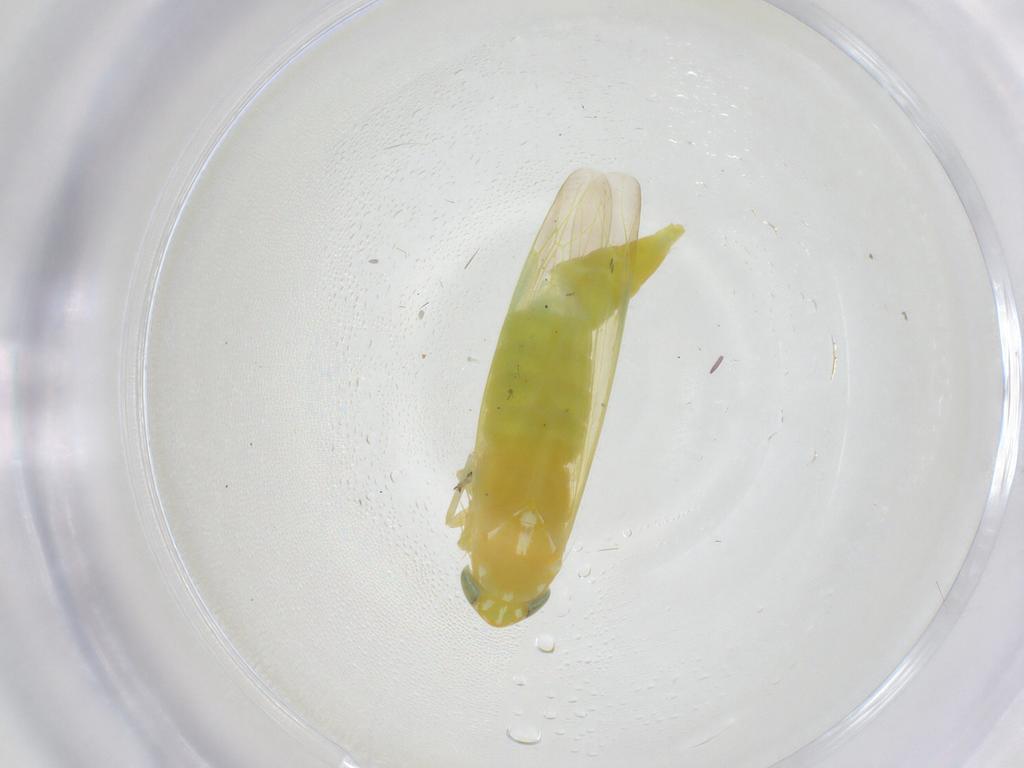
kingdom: Animalia
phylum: Arthropoda
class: Insecta
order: Hemiptera
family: Cicadellidae
